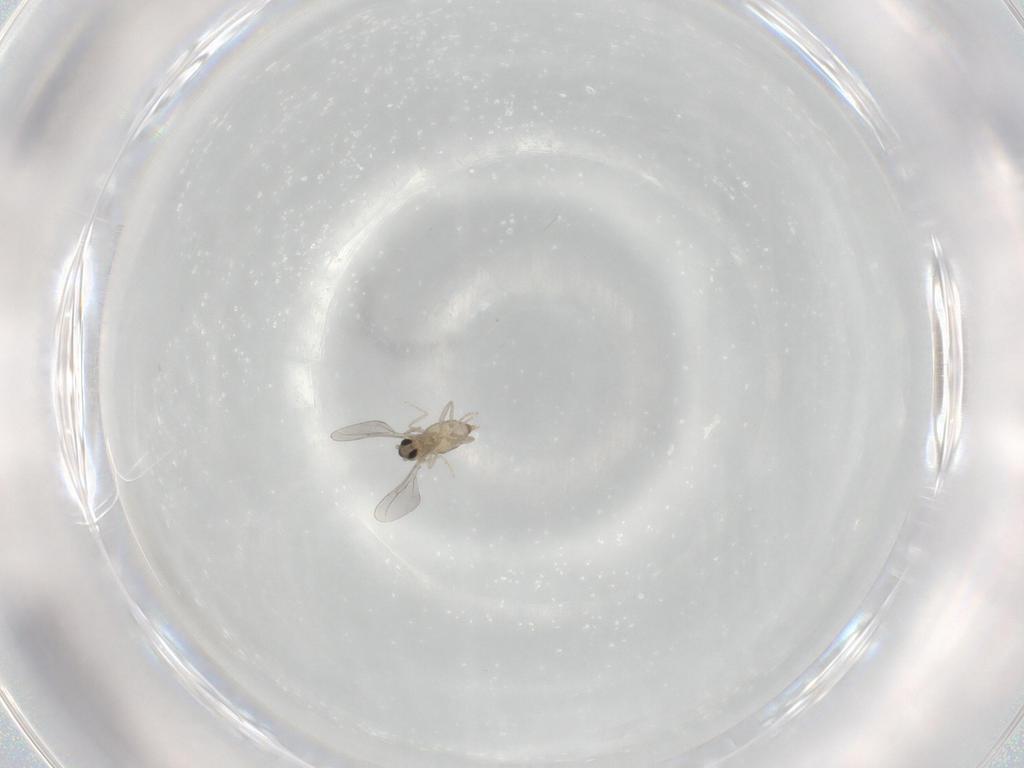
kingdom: Animalia
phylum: Arthropoda
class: Insecta
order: Diptera
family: Cecidomyiidae
